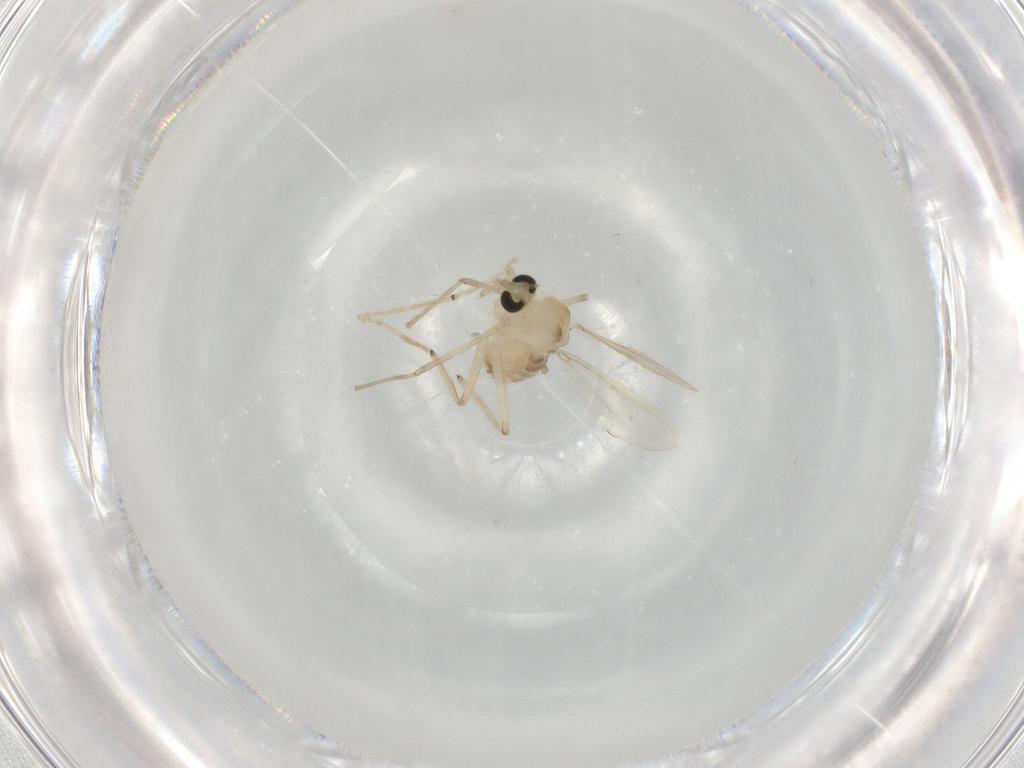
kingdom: Animalia
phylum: Arthropoda
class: Insecta
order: Diptera
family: Chironomidae
